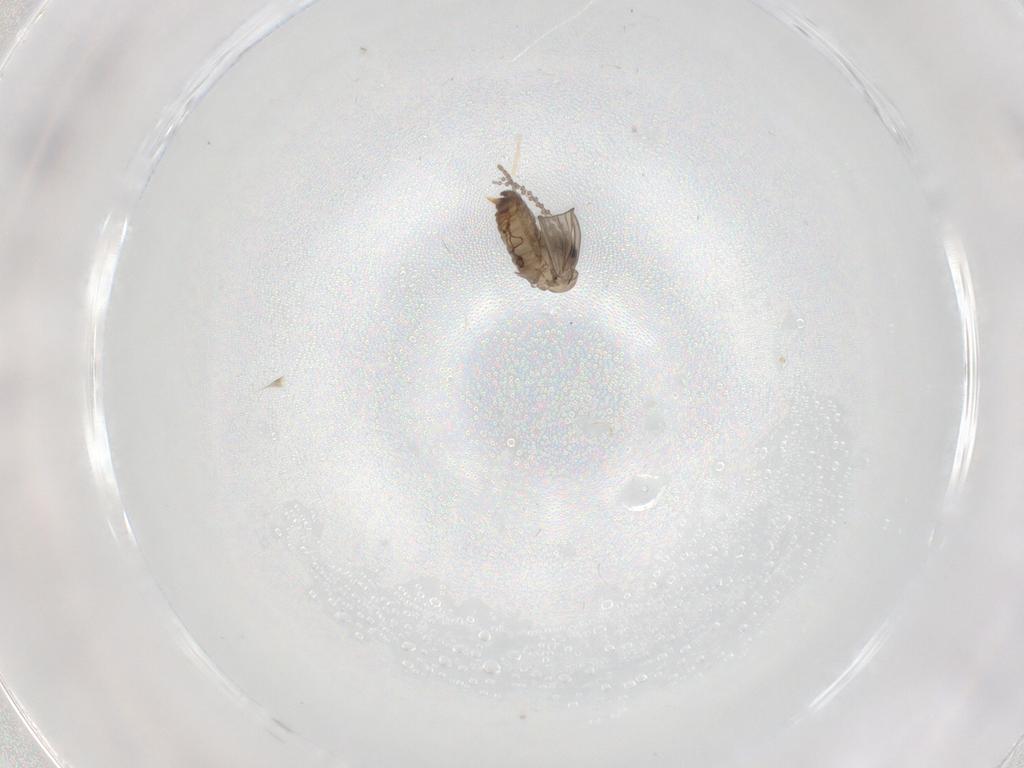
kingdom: Animalia
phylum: Arthropoda
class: Insecta
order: Diptera
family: Psychodidae
